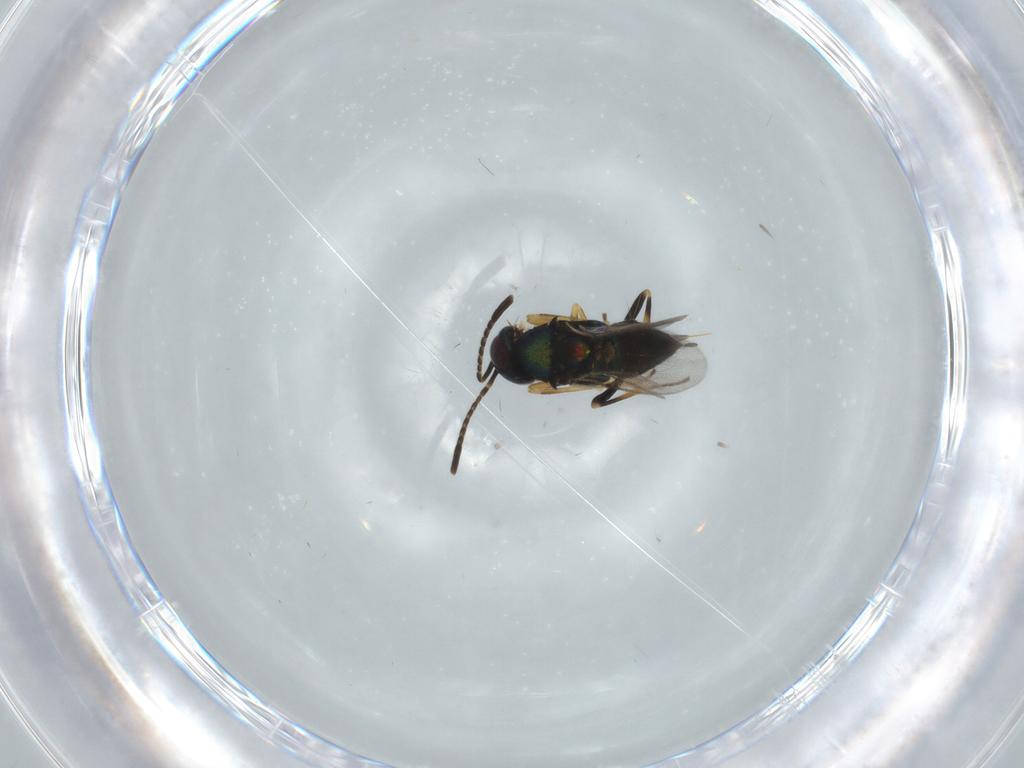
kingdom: Animalia
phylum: Arthropoda
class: Insecta
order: Hymenoptera
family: Encyrtidae
